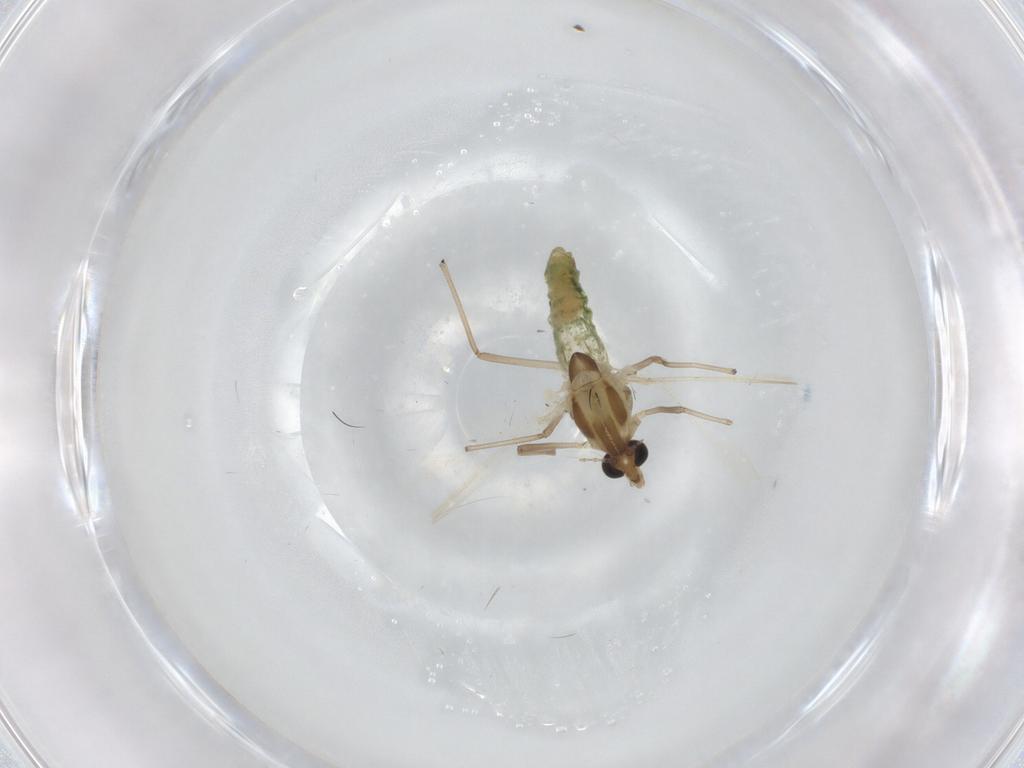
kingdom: Animalia
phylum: Arthropoda
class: Insecta
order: Diptera
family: Chironomidae
